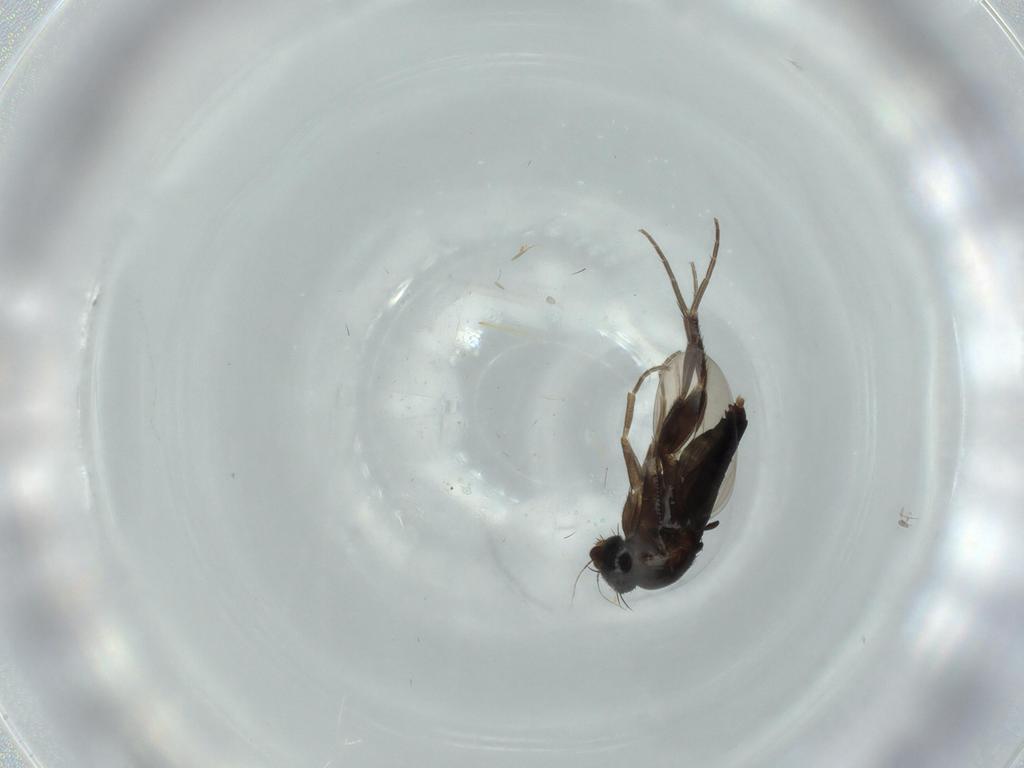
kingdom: Animalia
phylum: Arthropoda
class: Insecta
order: Diptera
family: Phoridae
